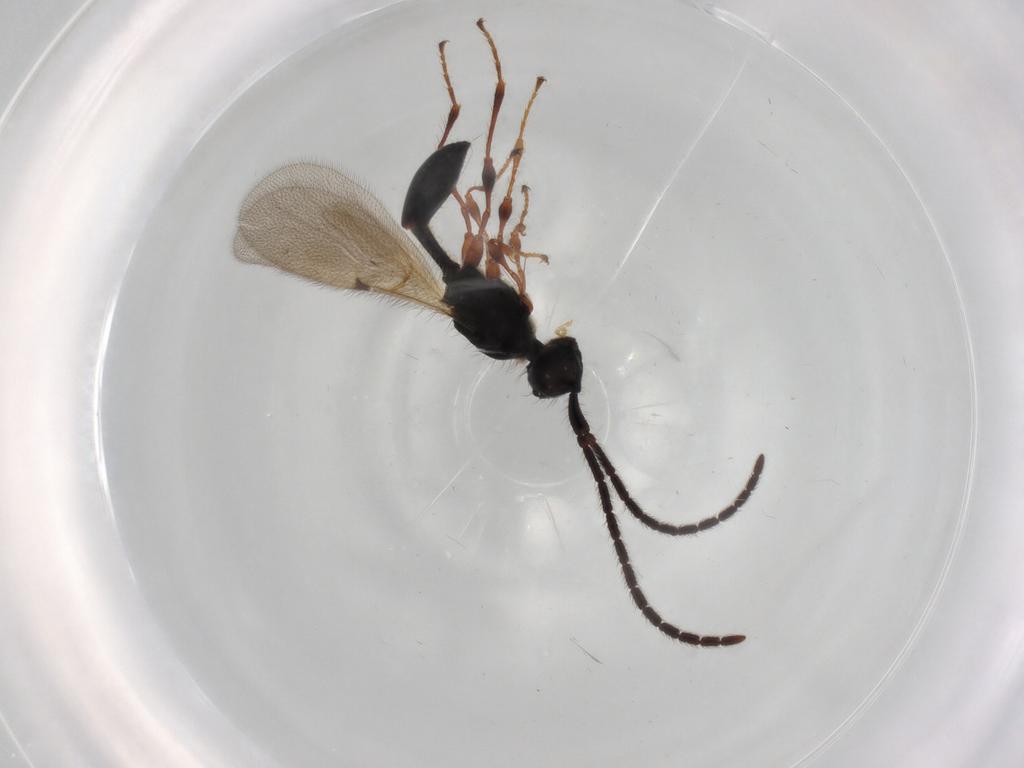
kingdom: Animalia
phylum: Arthropoda
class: Insecta
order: Hymenoptera
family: Diapriidae
